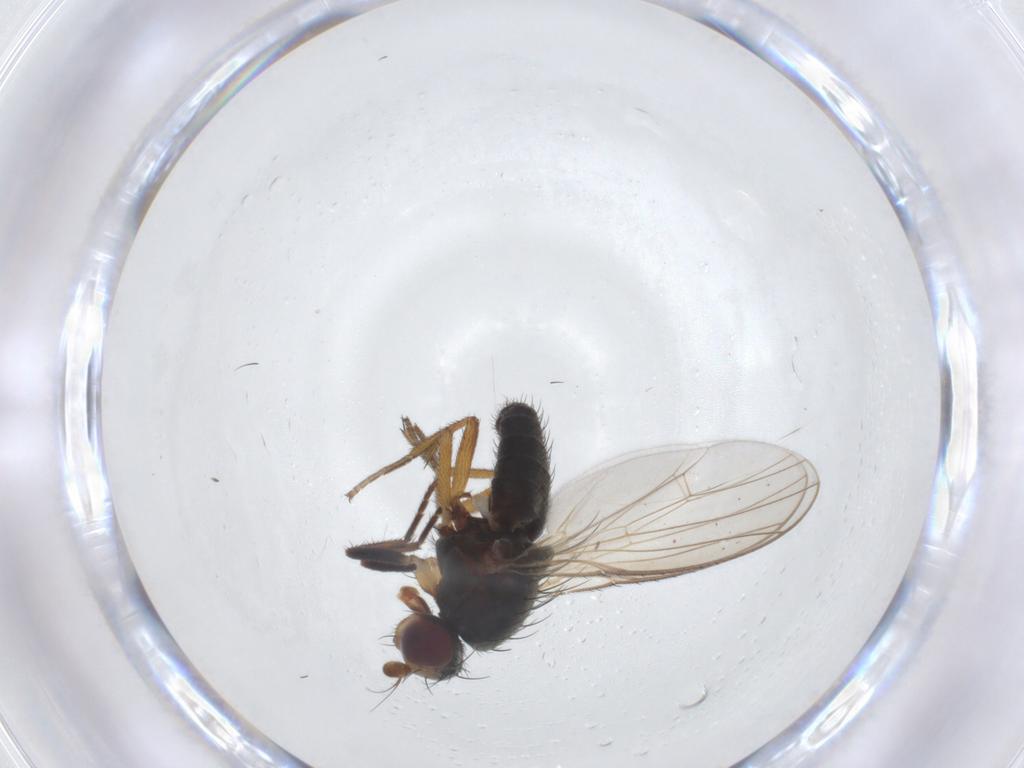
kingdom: Animalia
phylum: Arthropoda
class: Insecta
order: Diptera
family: Heleomyzidae
